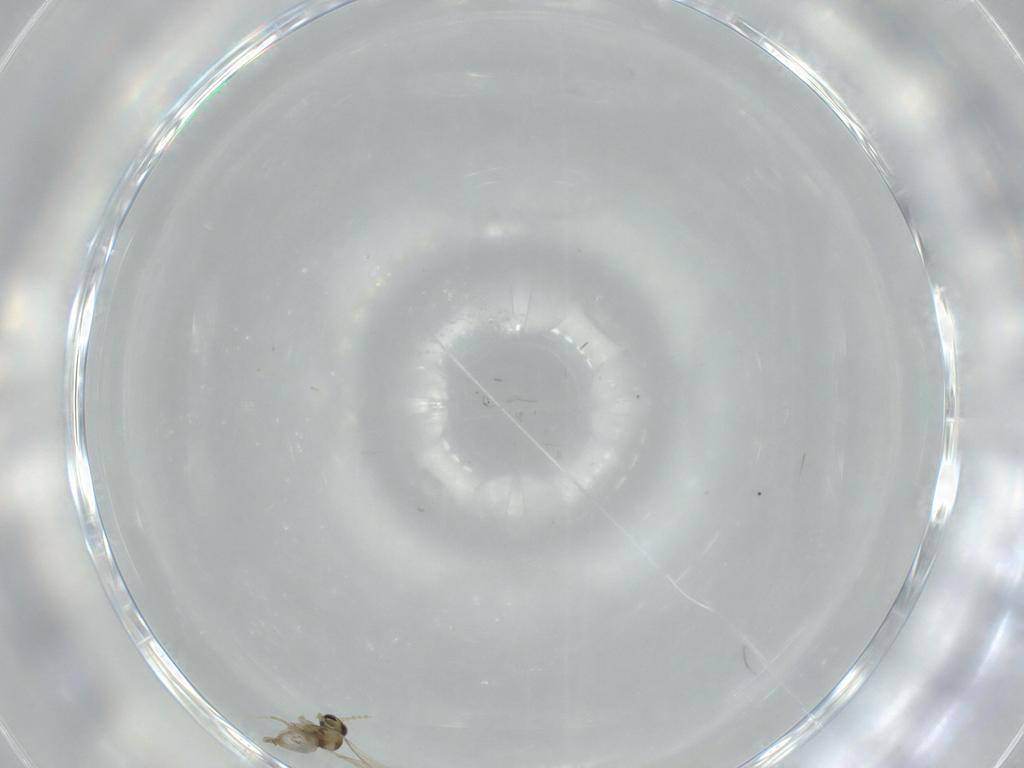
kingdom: Animalia
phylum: Arthropoda
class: Insecta
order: Diptera
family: Cecidomyiidae
